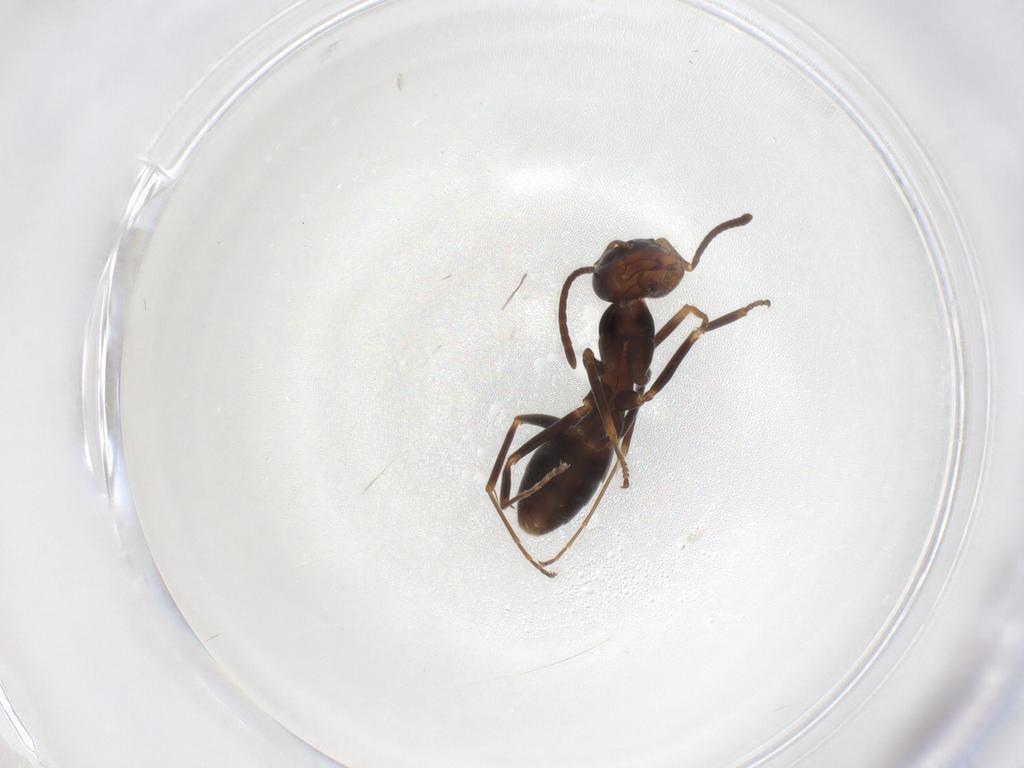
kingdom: Animalia
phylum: Arthropoda
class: Insecta
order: Hymenoptera
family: Formicidae
